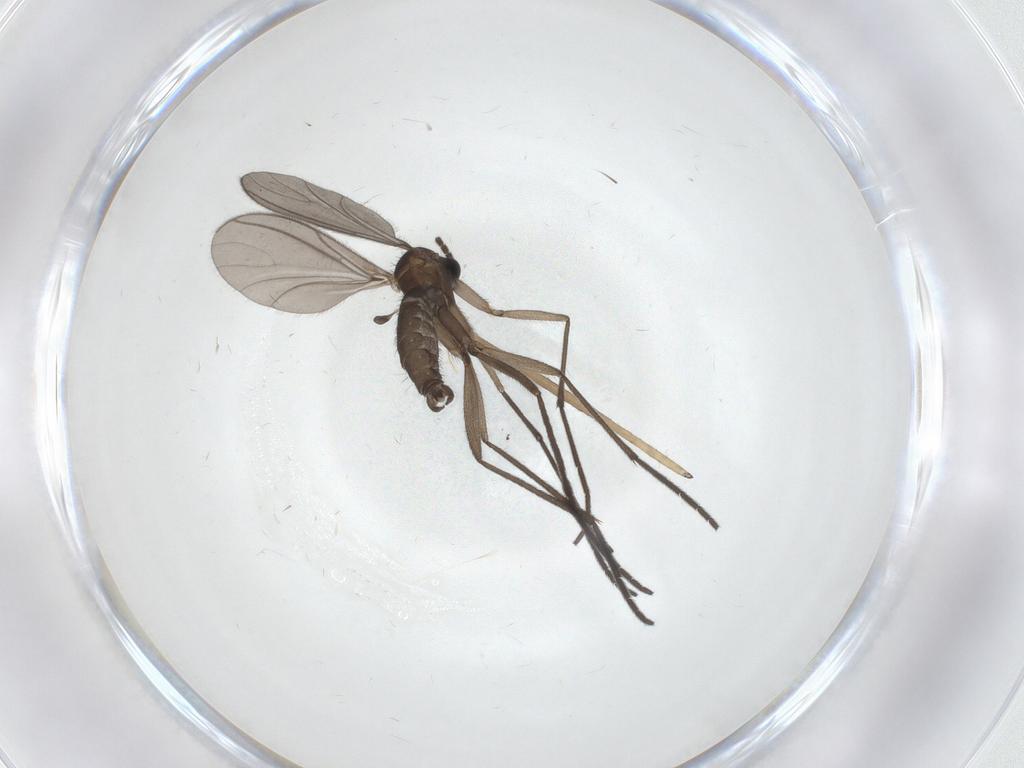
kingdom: Animalia
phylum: Arthropoda
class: Insecta
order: Diptera
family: Limoniidae
